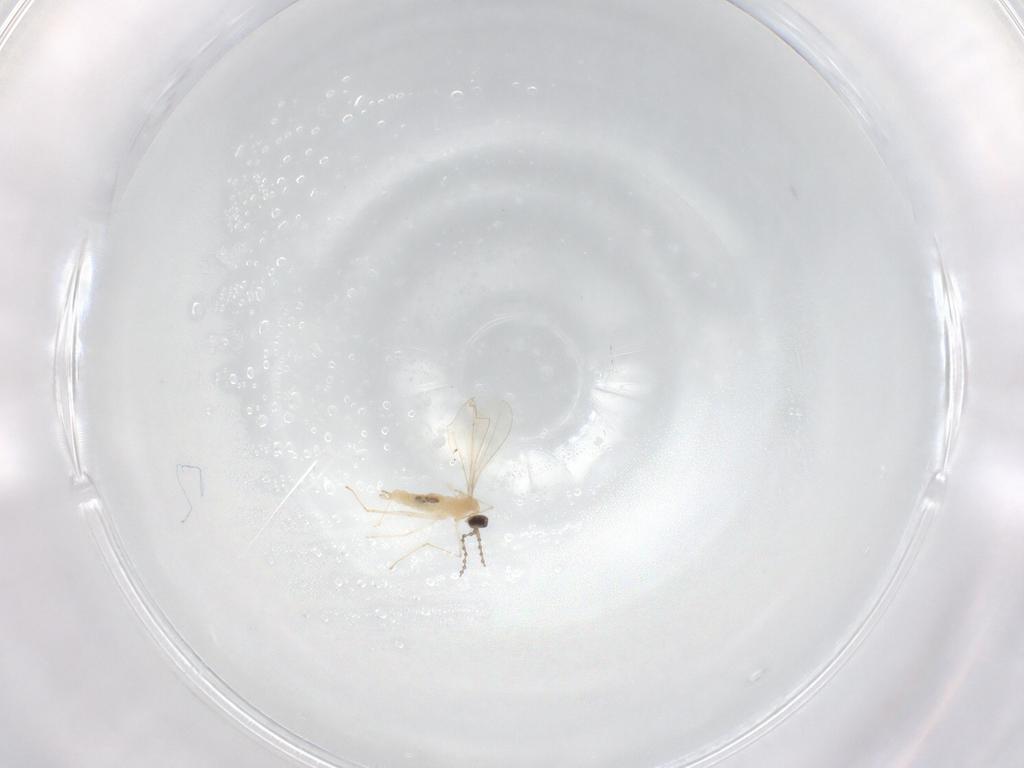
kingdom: Animalia
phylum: Arthropoda
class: Insecta
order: Diptera
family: Cecidomyiidae
